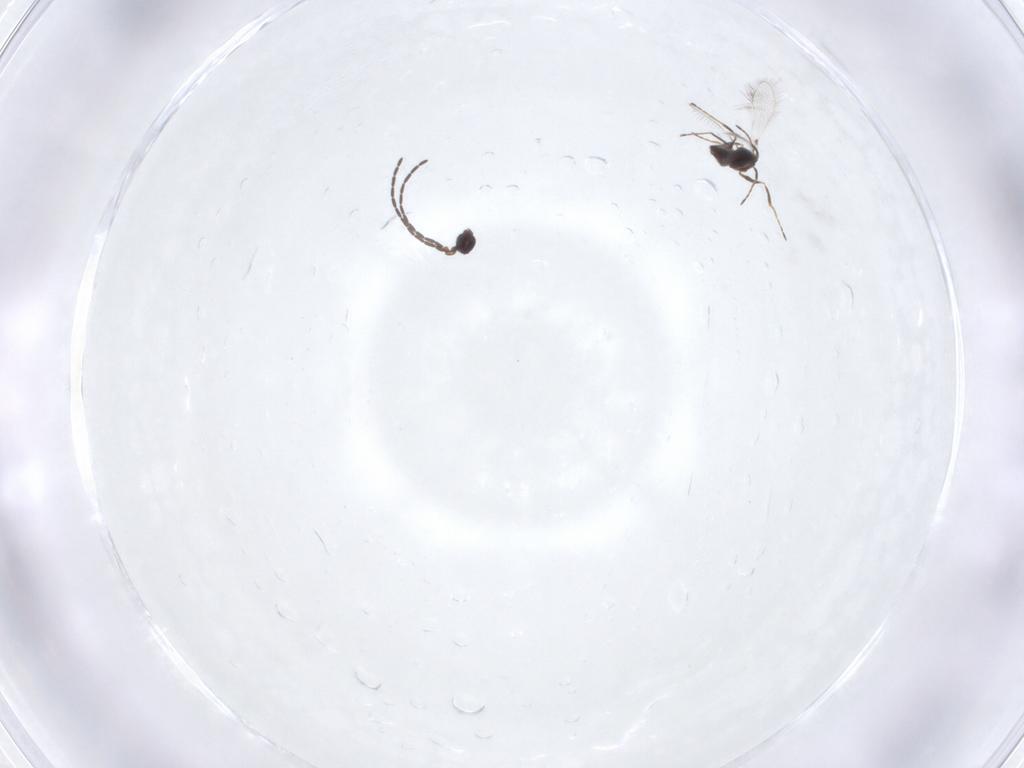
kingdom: Animalia
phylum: Arthropoda
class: Insecta
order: Hymenoptera
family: Mymaridae
